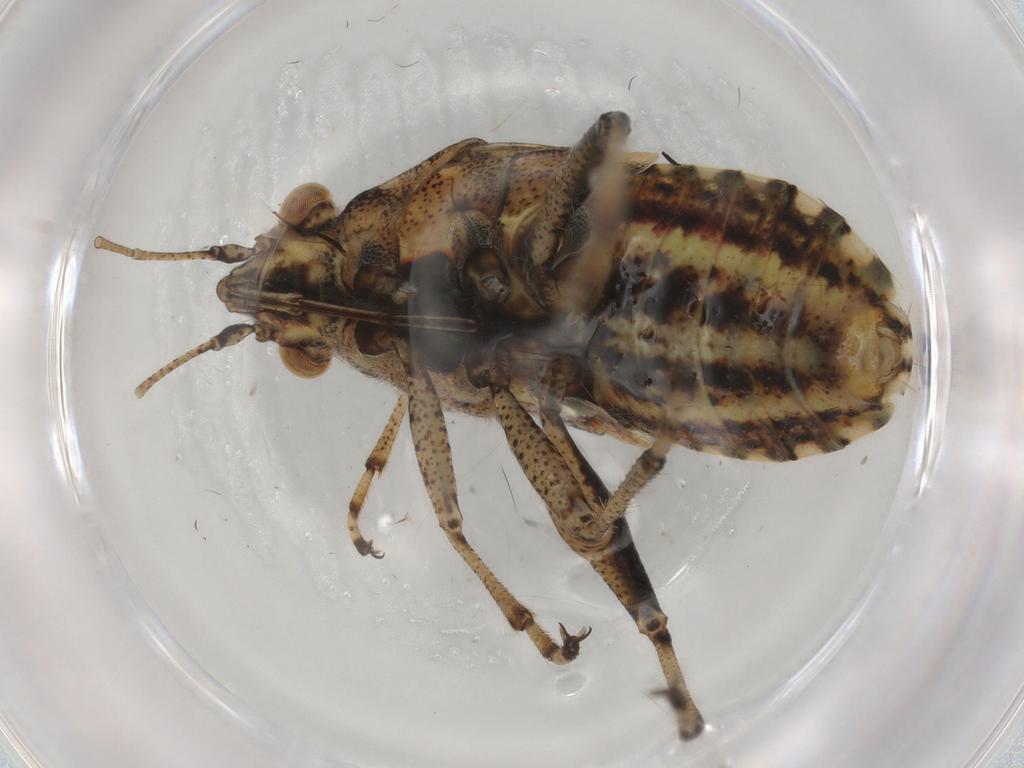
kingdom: Animalia
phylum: Arthropoda
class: Insecta
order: Hemiptera
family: Rhopalidae
